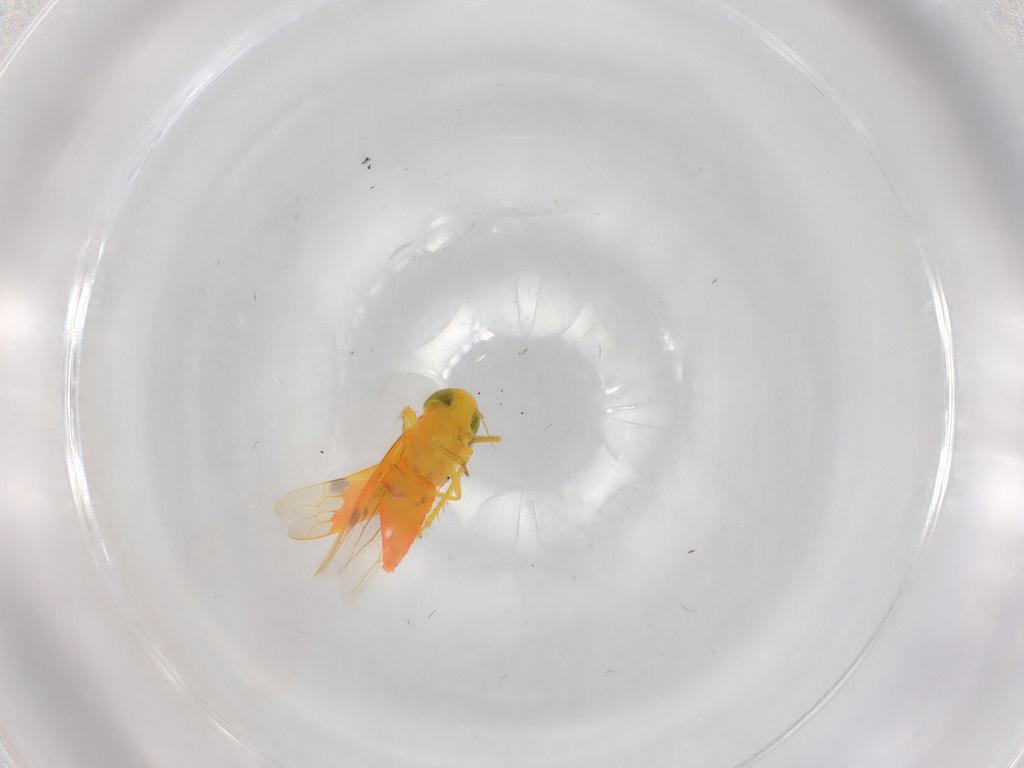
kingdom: Animalia
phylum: Arthropoda
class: Insecta
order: Hemiptera
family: Cicadellidae
